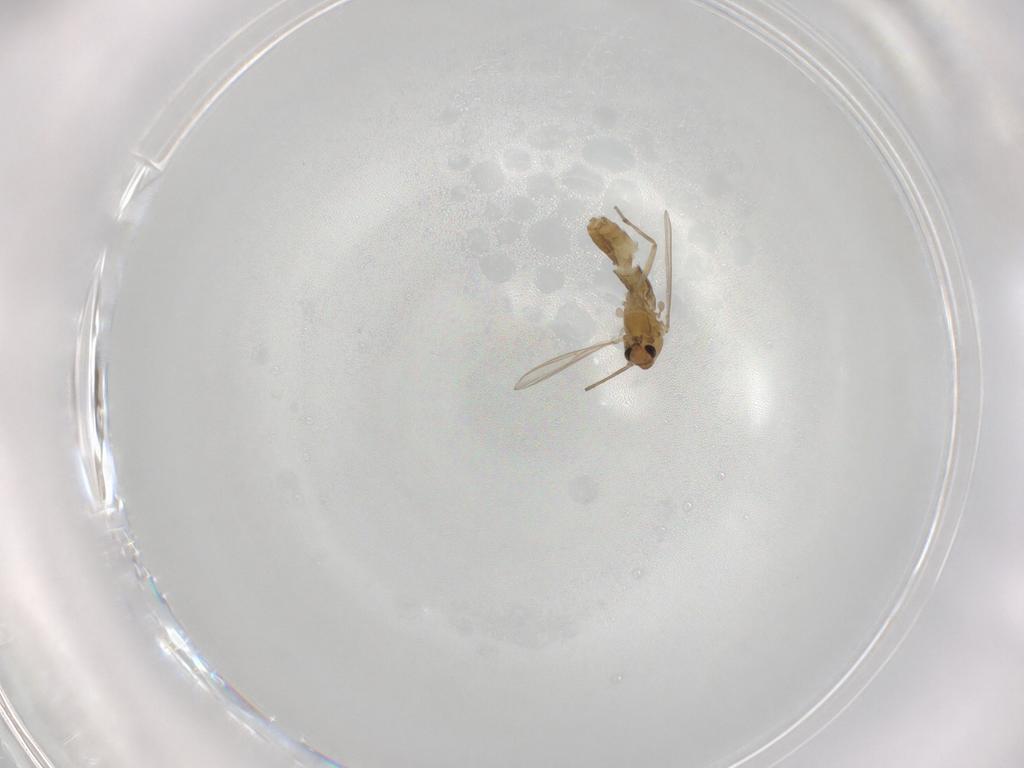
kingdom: Animalia
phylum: Arthropoda
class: Insecta
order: Diptera
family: Chironomidae
